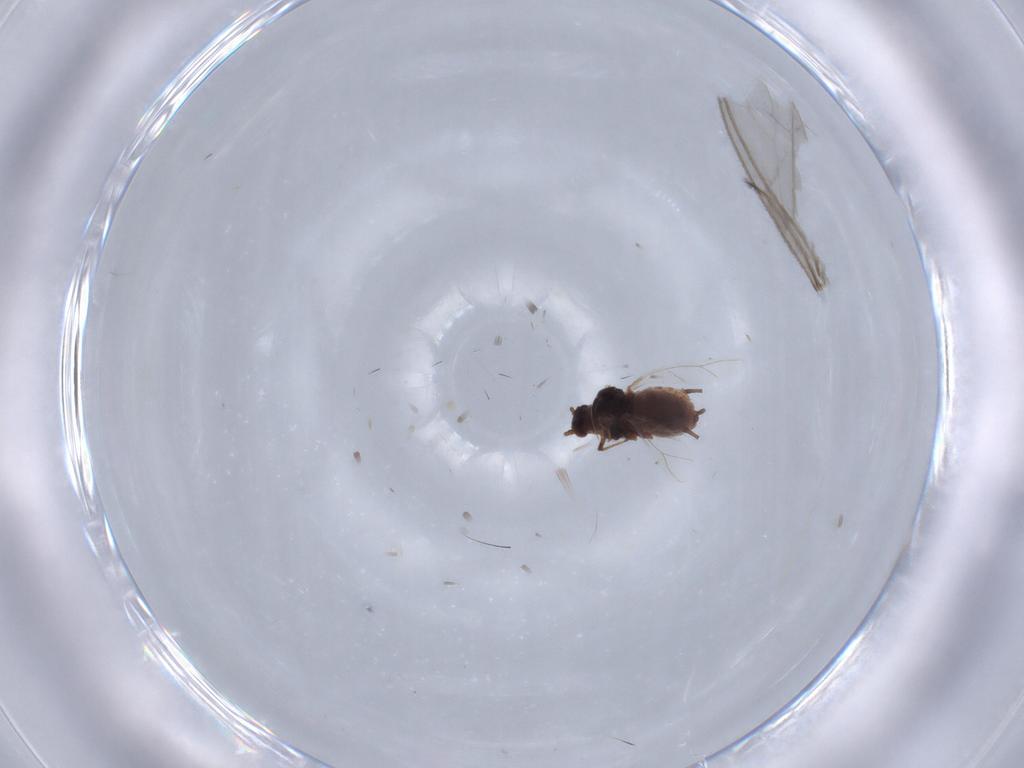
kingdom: Animalia
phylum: Arthropoda
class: Insecta
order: Hemiptera
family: Aphididae
